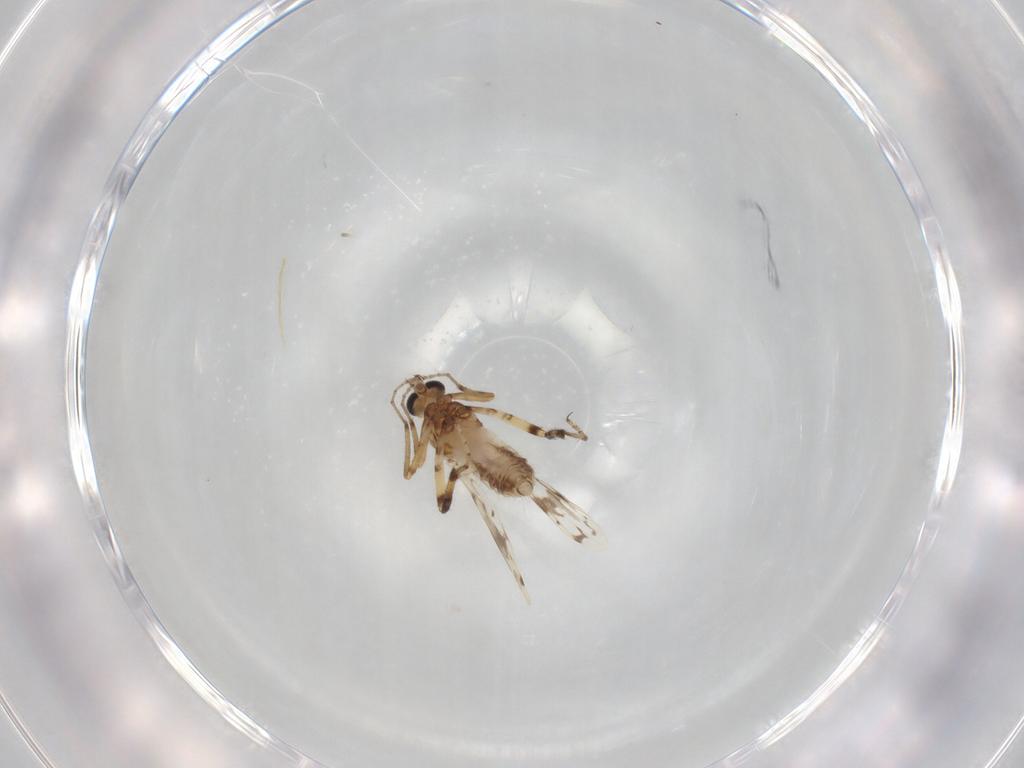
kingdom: Animalia
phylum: Arthropoda
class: Insecta
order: Diptera
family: Ceratopogonidae
